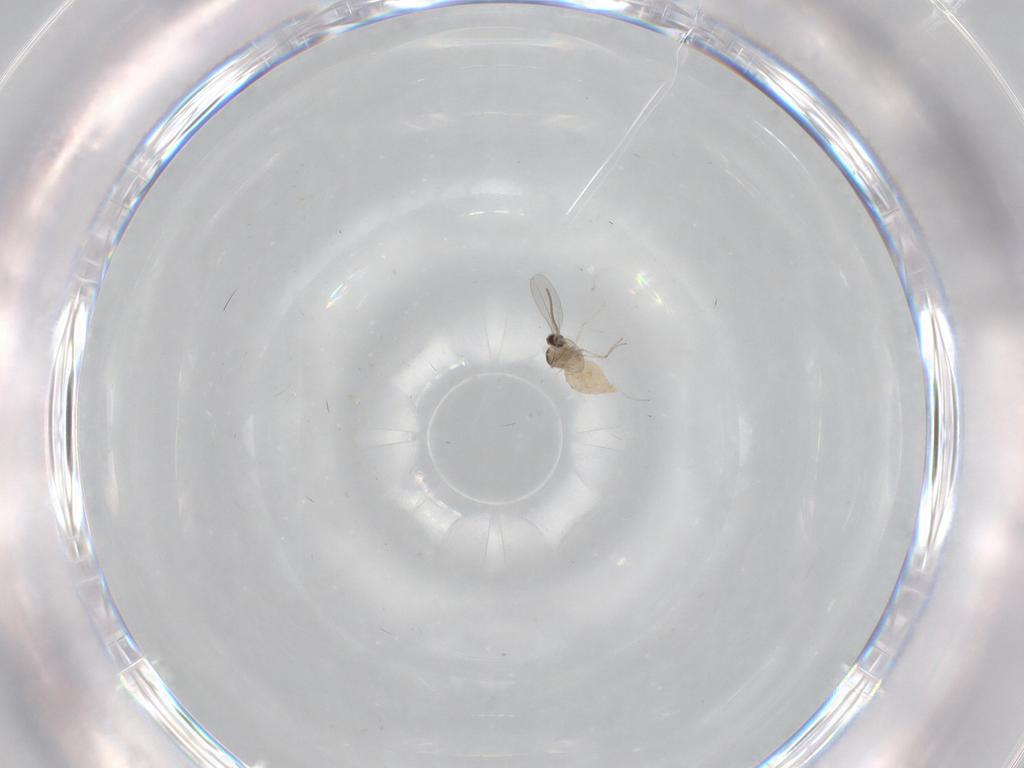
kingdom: Animalia
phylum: Arthropoda
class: Insecta
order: Diptera
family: Cecidomyiidae
